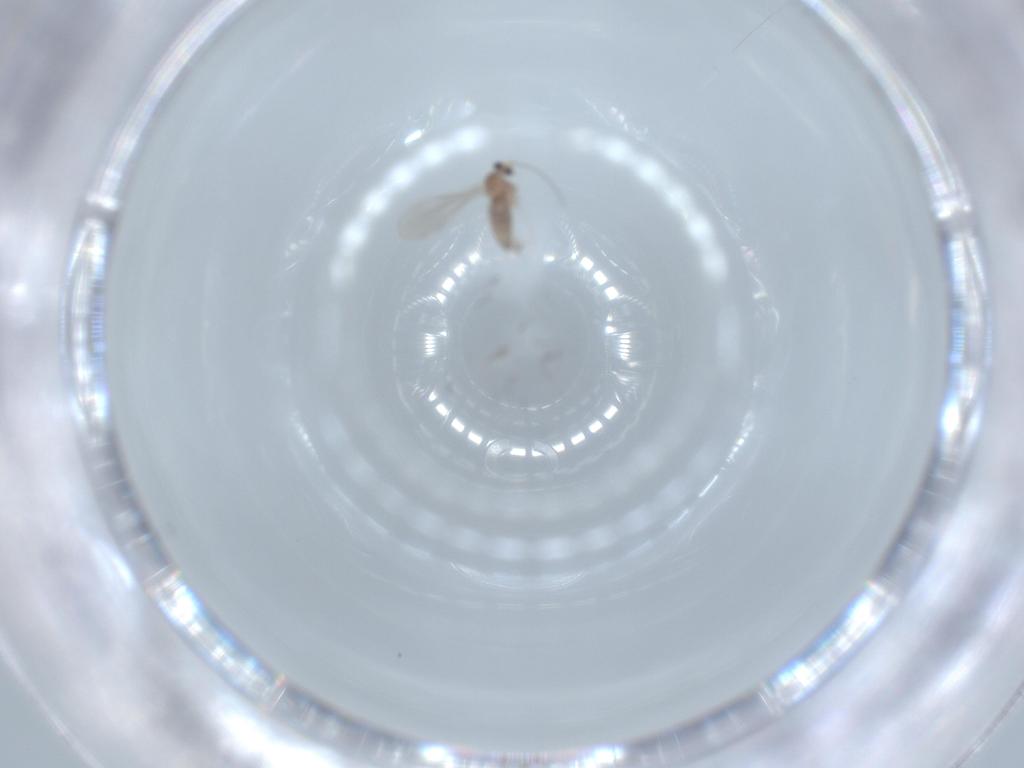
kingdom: Animalia
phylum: Arthropoda
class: Insecta
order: Diptera
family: Cecidomyiidae
